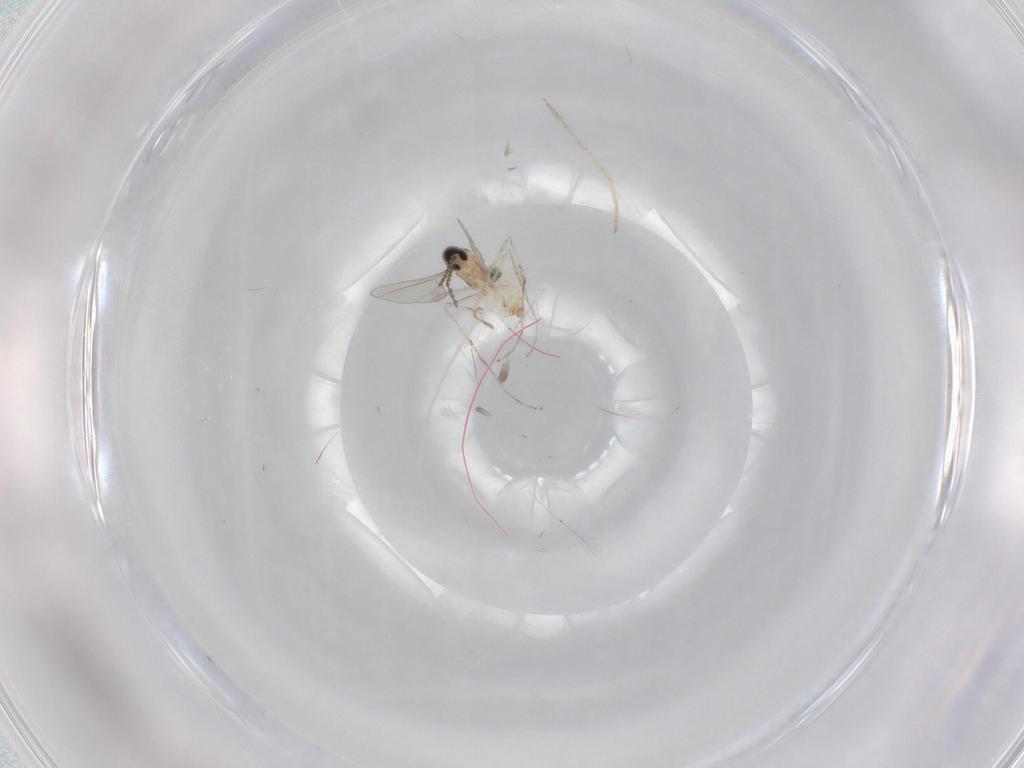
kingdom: Animalia
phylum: Arthropoda
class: Insecta
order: Diptera
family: Cecidomyiidae
